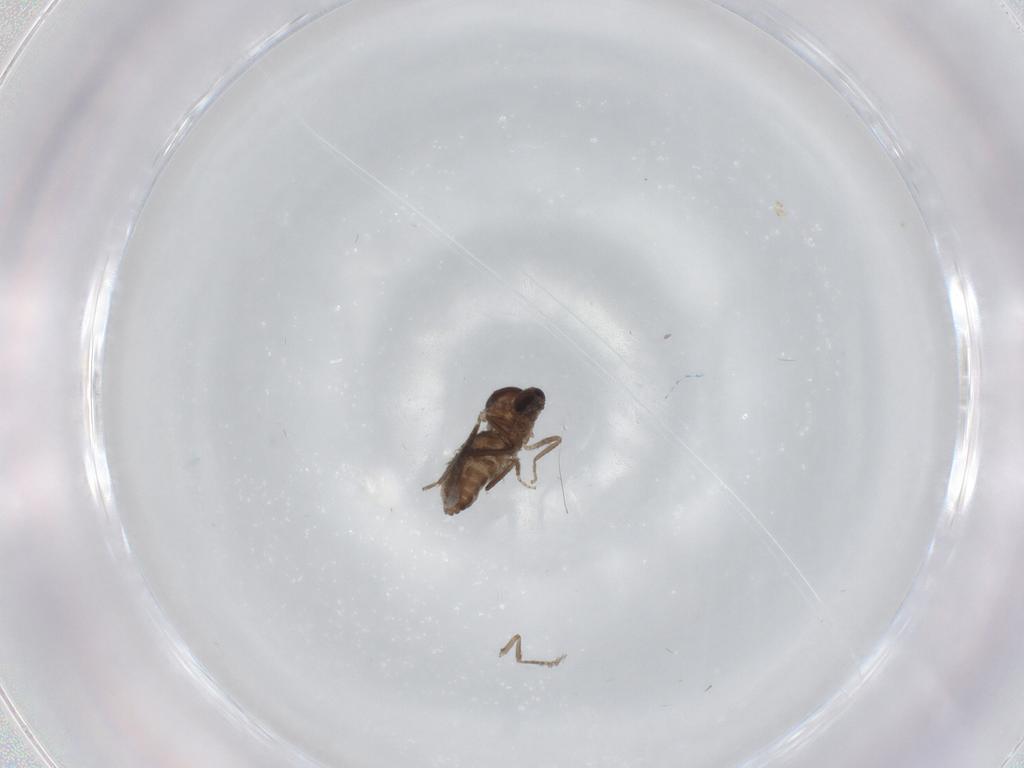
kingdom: Animalia
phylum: Arthropoda
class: Insecta
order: Diptera
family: Ceratopogonidae
